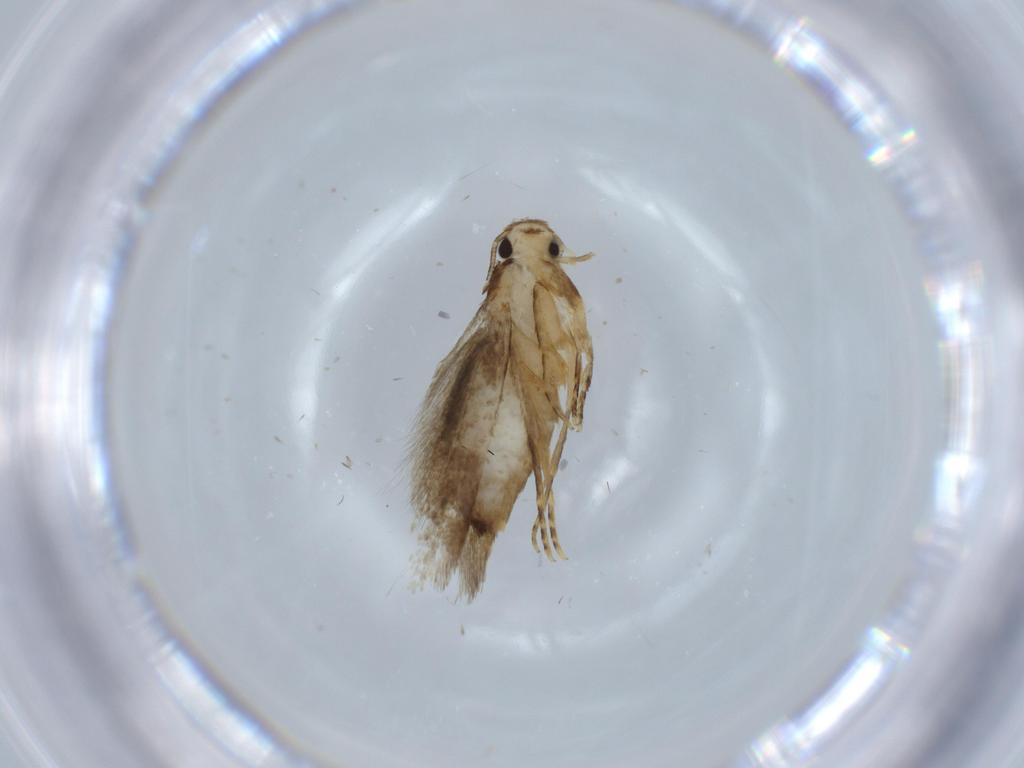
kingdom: Animalia
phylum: Arthropoda
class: Insecta
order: Lepidoptera
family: Tineidae
